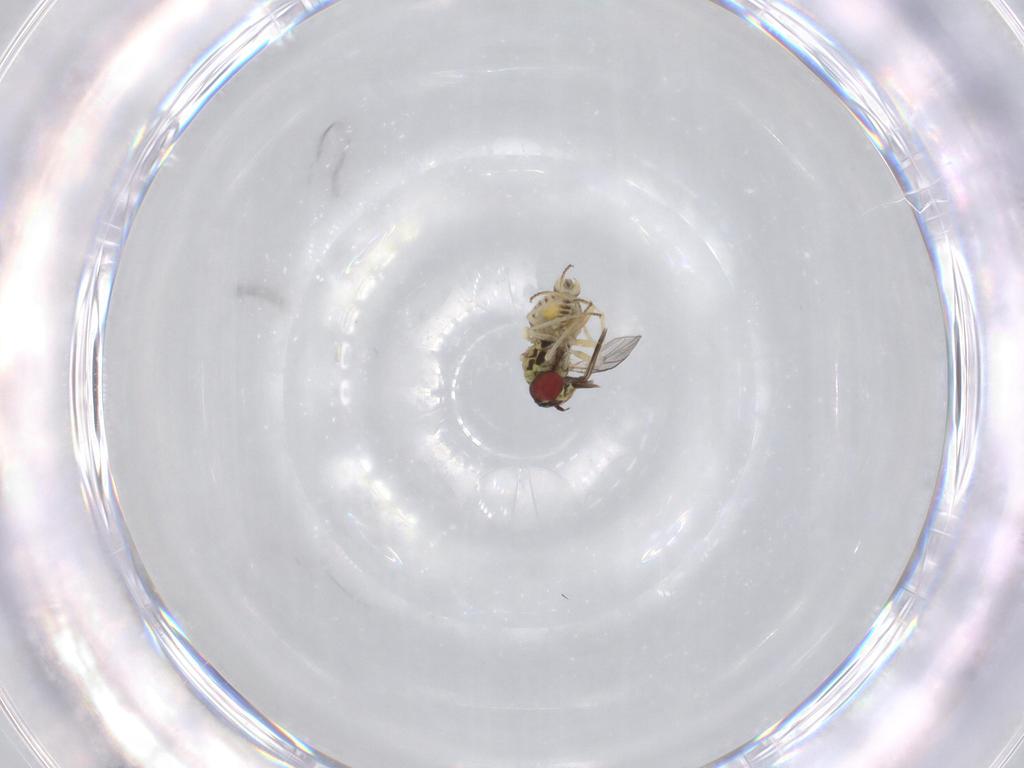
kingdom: Animalia
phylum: Arthropoda
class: Insecta
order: Diptera
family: Bombyliidae
